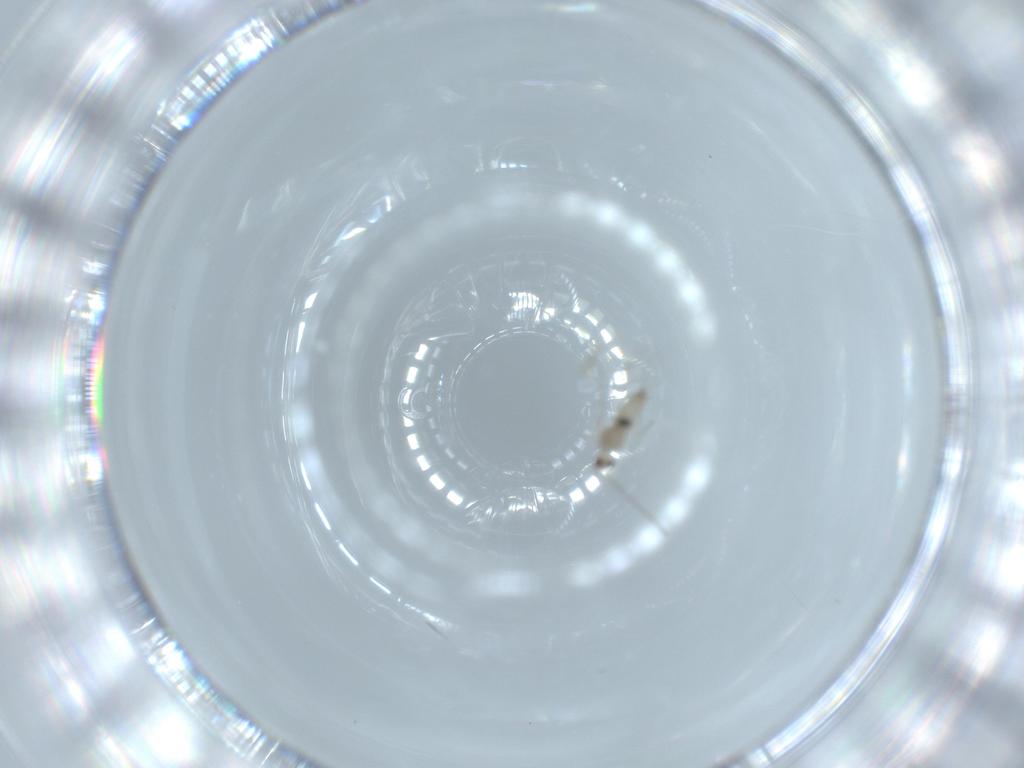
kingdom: Animalia
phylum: Arthropoda
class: Insecta
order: Diptera
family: Cecidomyiidae
